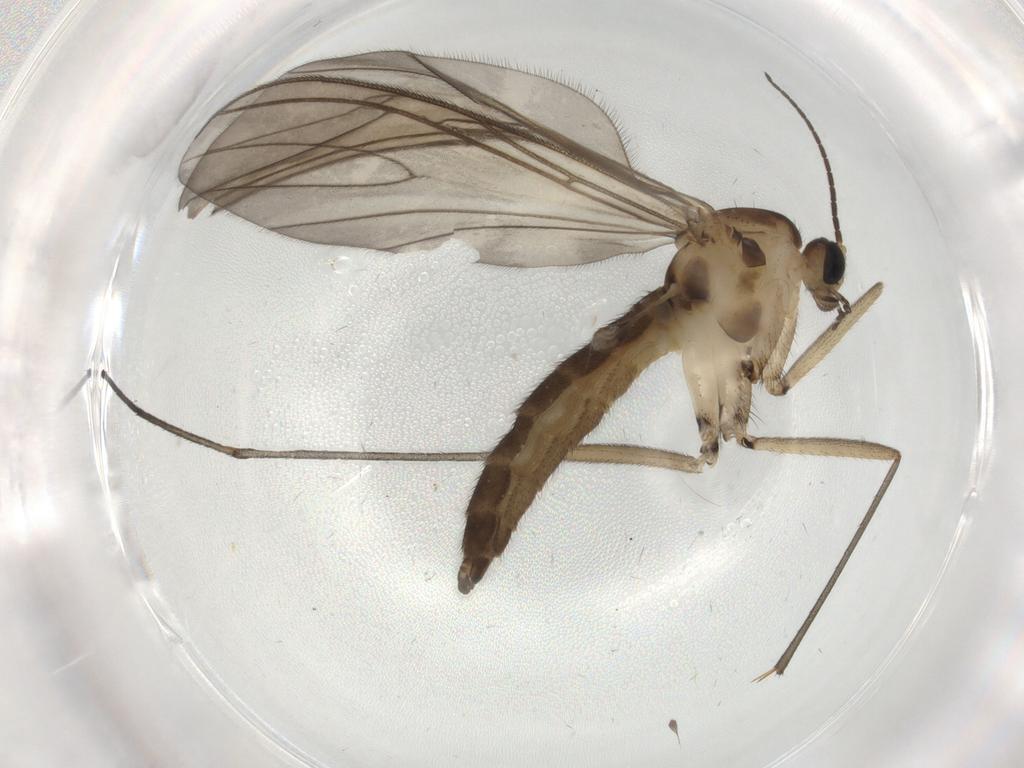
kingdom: Animalia
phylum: Arthropoda
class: Insecta
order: Diptera
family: Sciaridae
